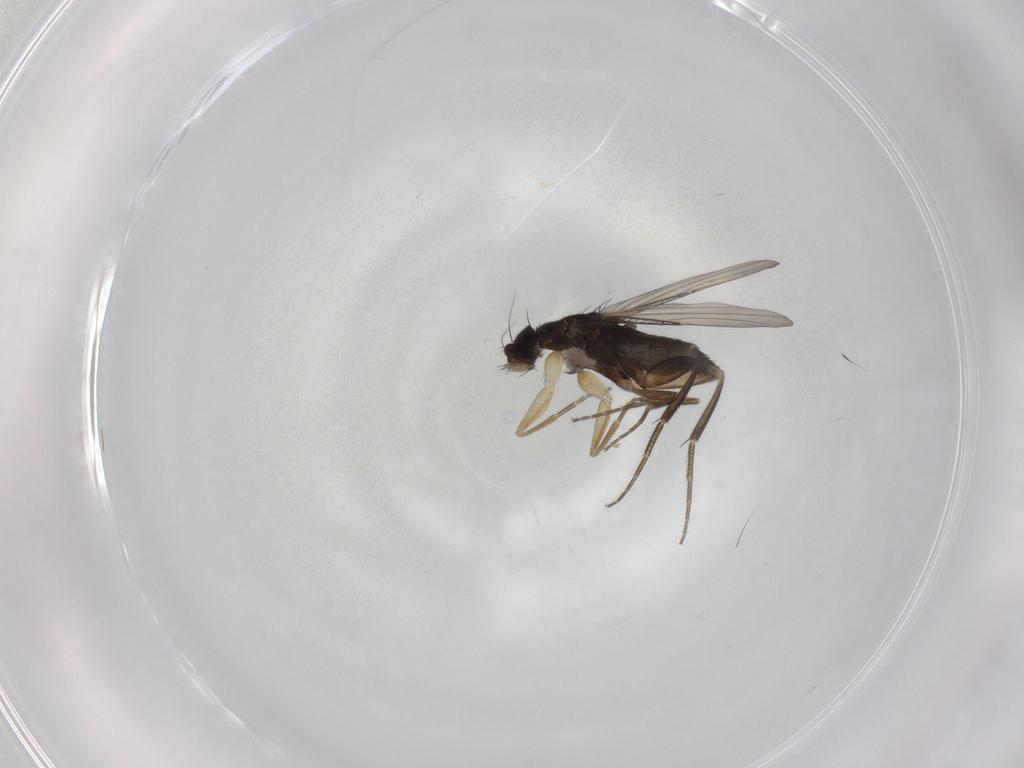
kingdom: Animalia
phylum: Arthropoda
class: Insecta
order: Diptera
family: Phoridae
